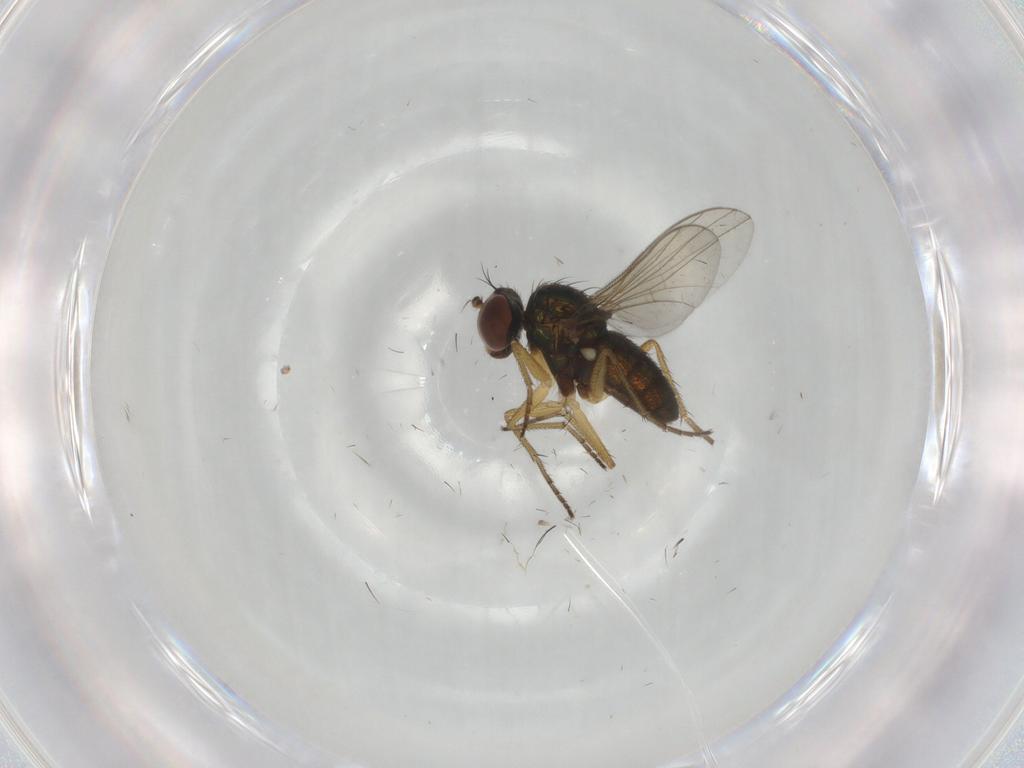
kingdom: Animalia
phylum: Arthropoda
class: Insecta
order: Diptera
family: Dolichopodidae
